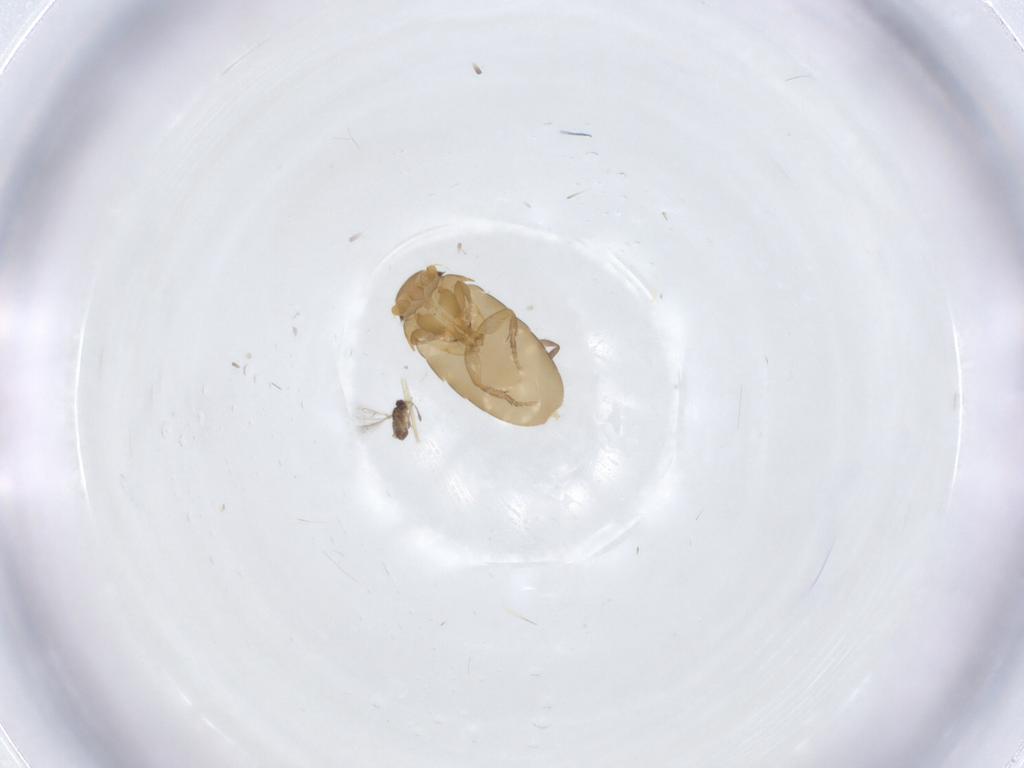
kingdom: Animalia
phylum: Arthropoda
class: Insecta
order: Diptera
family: Phoridae
